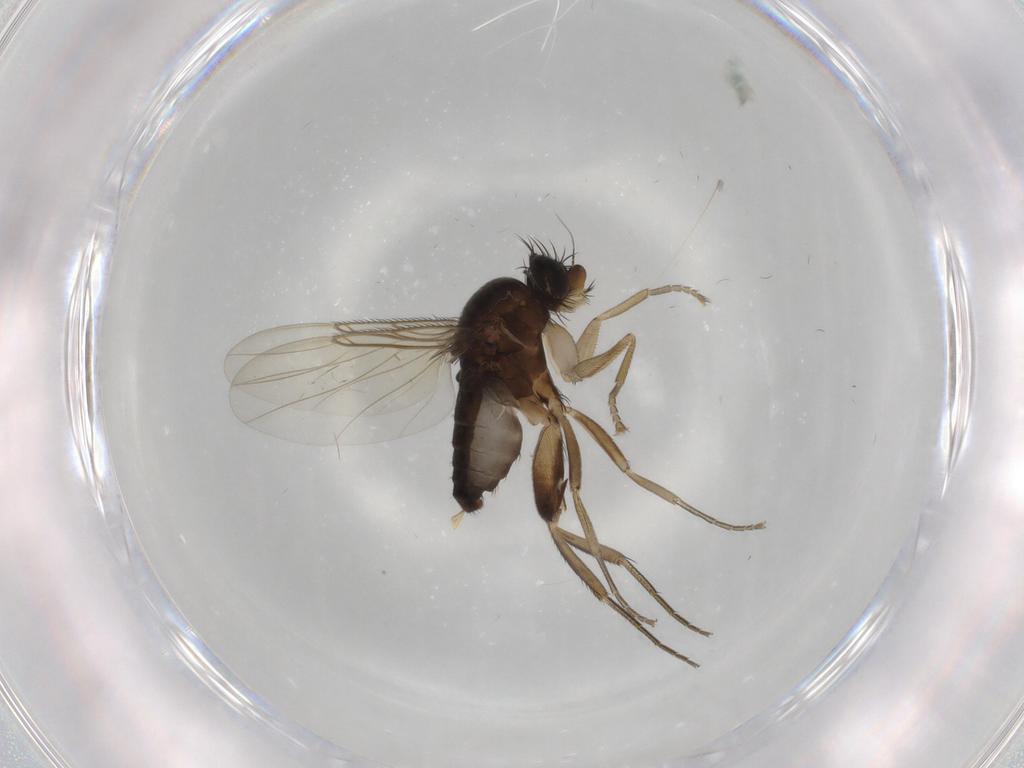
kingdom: Animalia
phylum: Arthropoda
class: Insecta
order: Diptera
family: Phoridae
